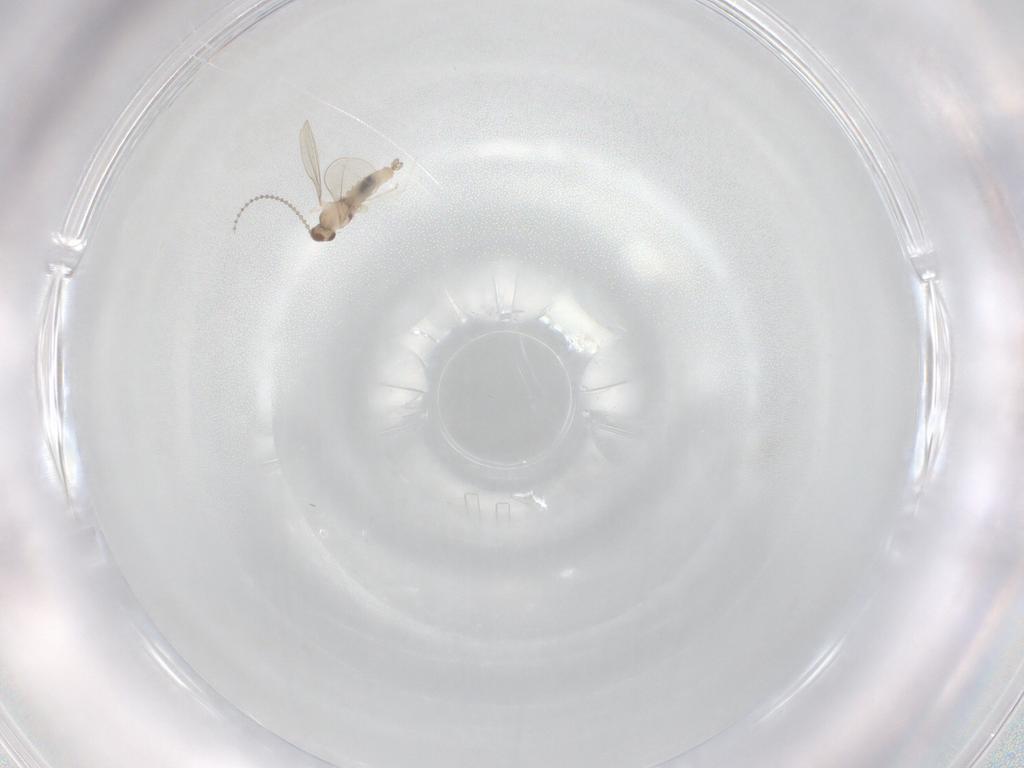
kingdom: Animalia
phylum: Arthropoda
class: Insecta
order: Diptera
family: Cecidomyiidae
